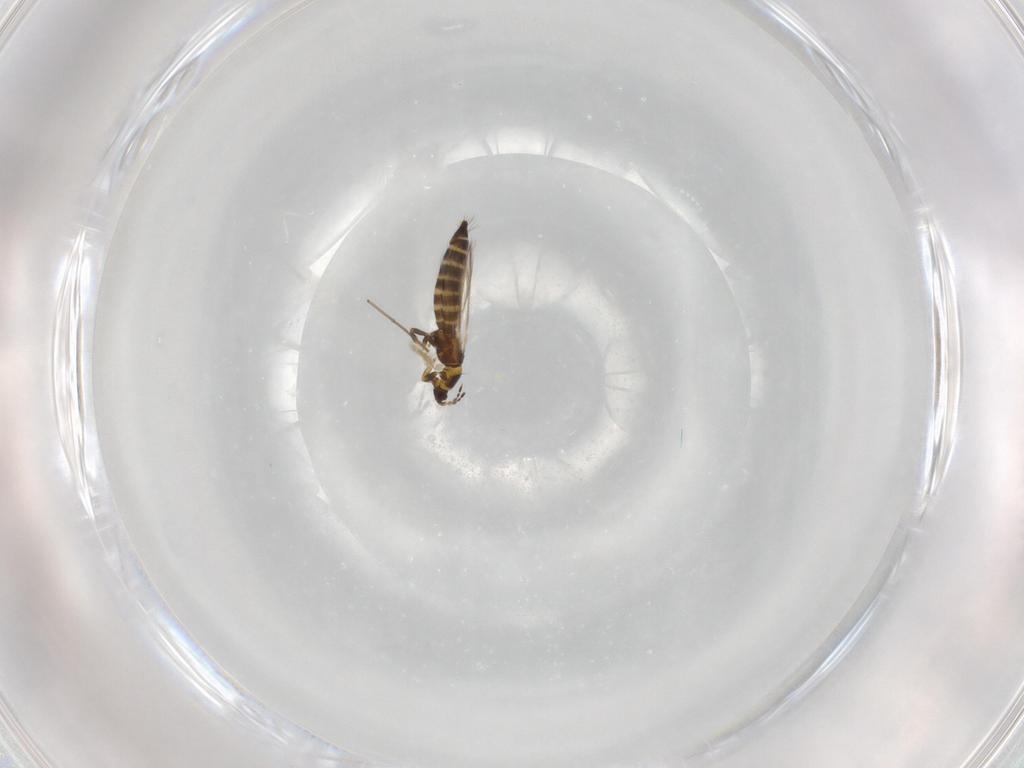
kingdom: Animalia
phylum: Arthropoda
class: Insecta
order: Thysanoptera
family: Thripidae
